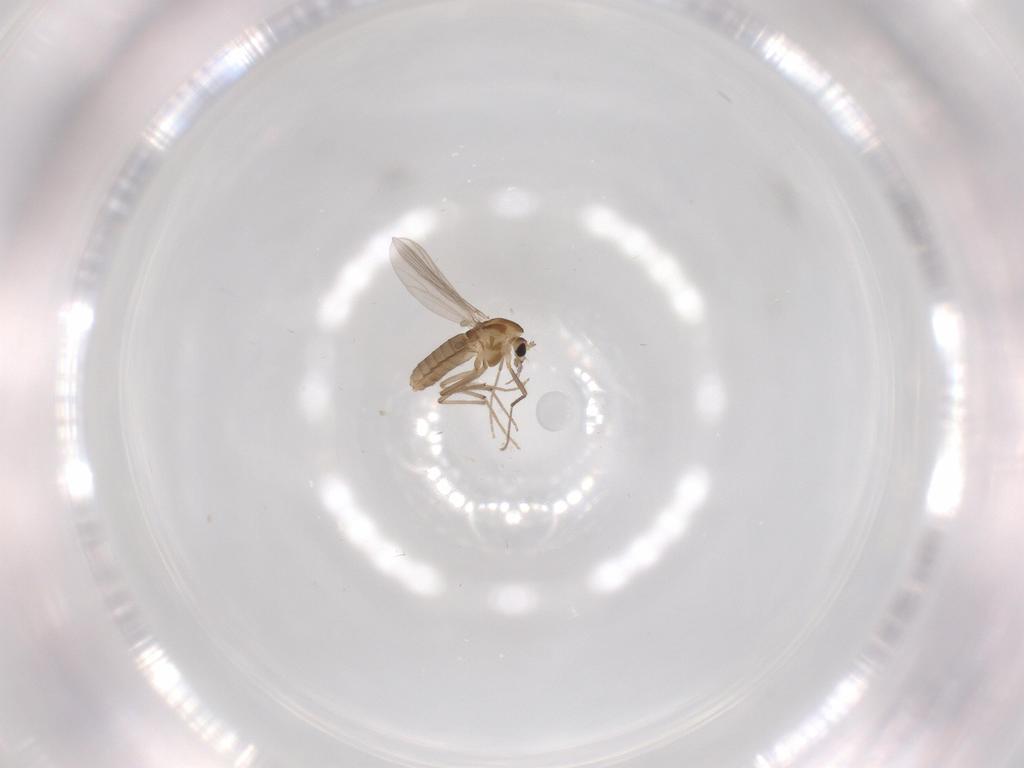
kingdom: Animalia
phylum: Arthropoda
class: Insecta
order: Diptera
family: Chironomidae
